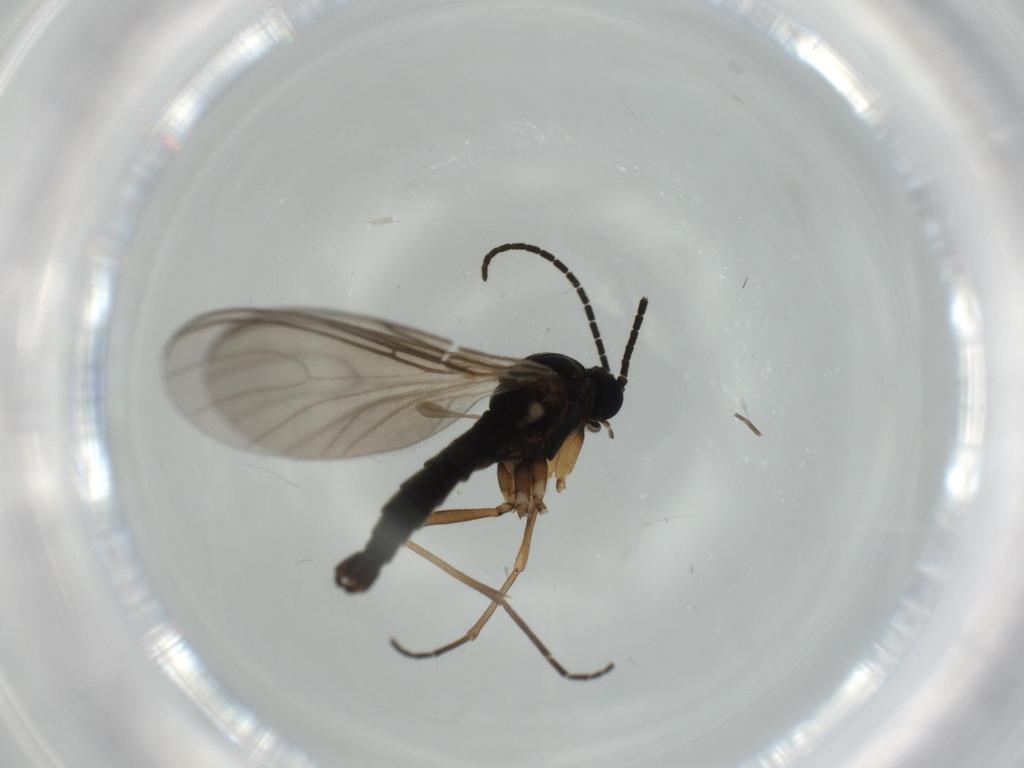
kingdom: Animalia
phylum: Arthropoda
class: Insecta
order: Diptera
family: Sciaridae
